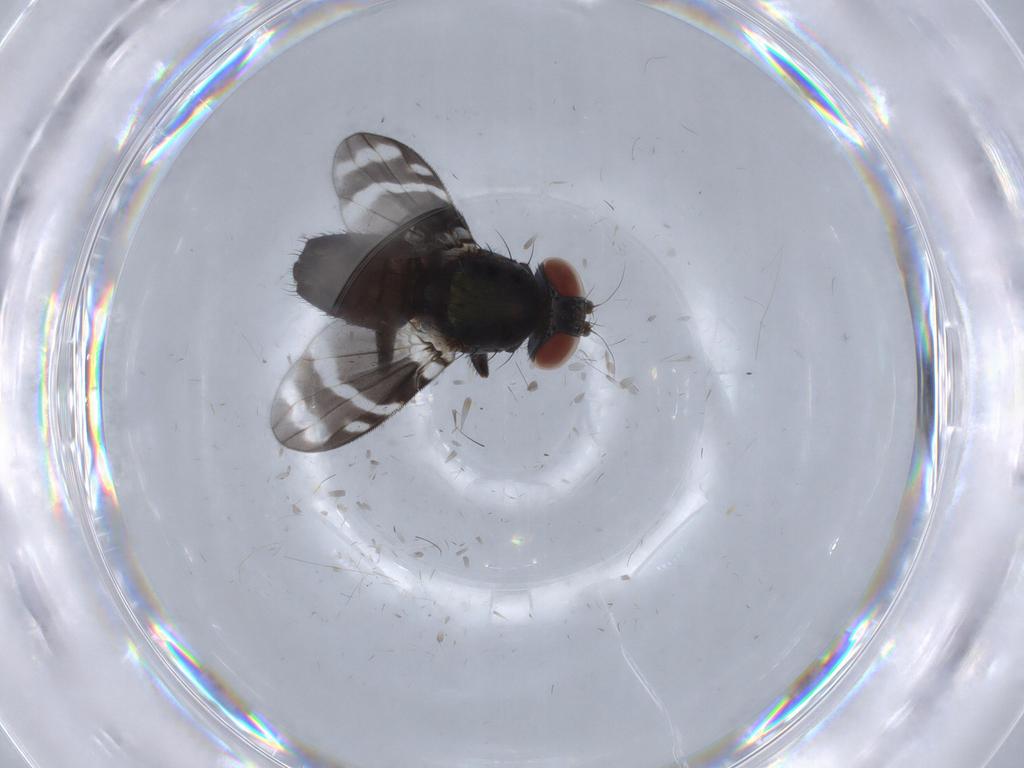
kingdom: Animalia
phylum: Arthropoda
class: Insecta
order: Diptera
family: Ulidiidae
